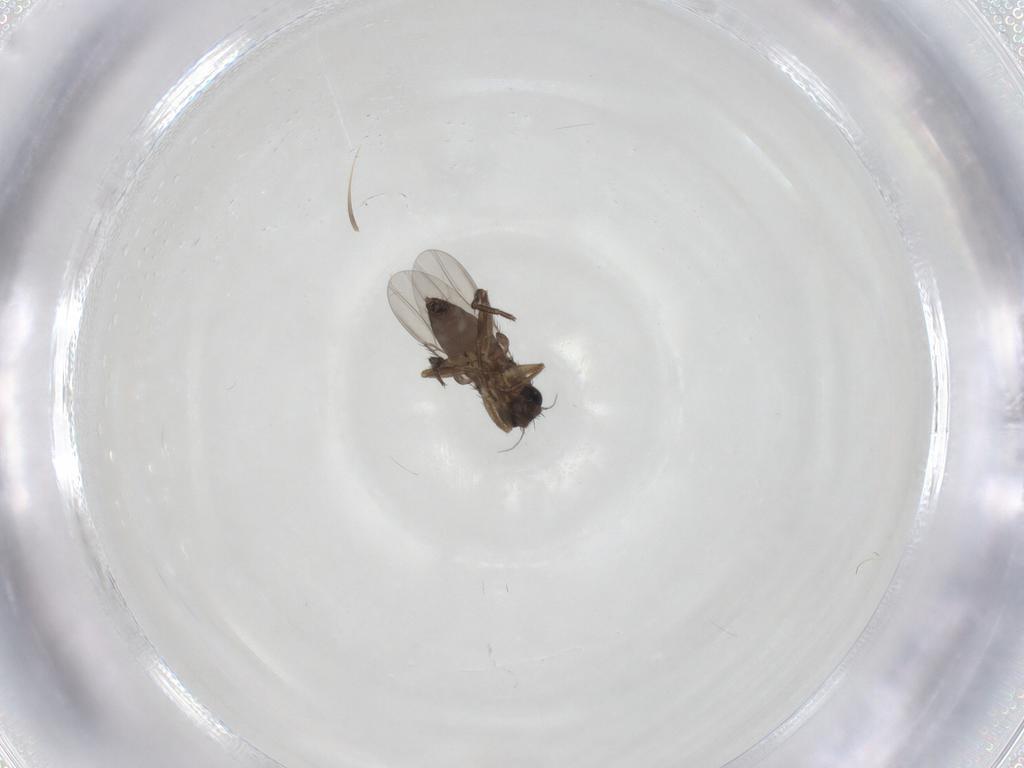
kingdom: Animalia
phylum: Arthropoda
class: Insecta
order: Diptera
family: Phoridae
